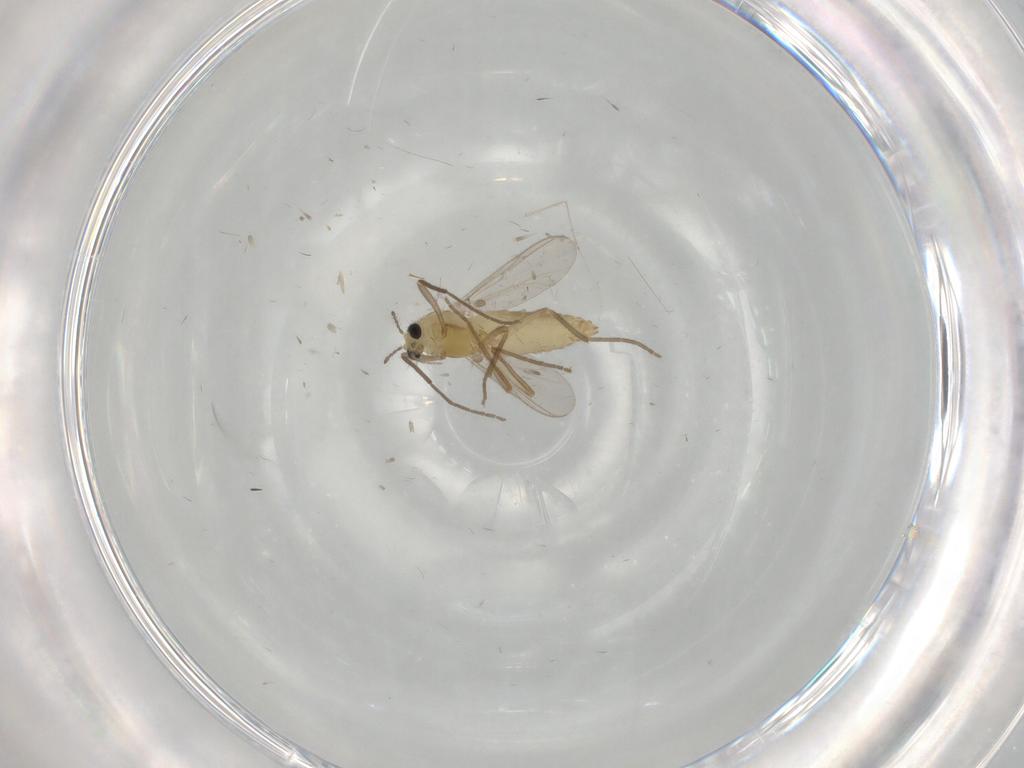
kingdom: Animalia
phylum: Arthropoda
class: Insecta
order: Diptera
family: Chironomidae
